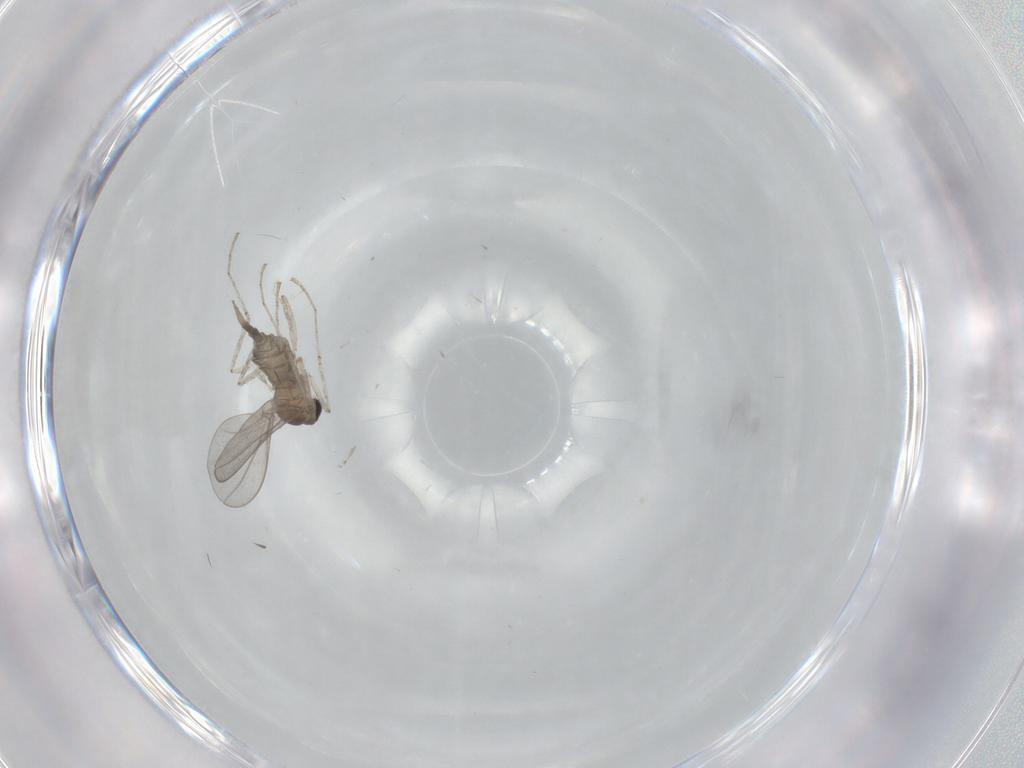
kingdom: Animalia
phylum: Arthropoda
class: Insecta
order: Diptera
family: Cecidomyiidae
